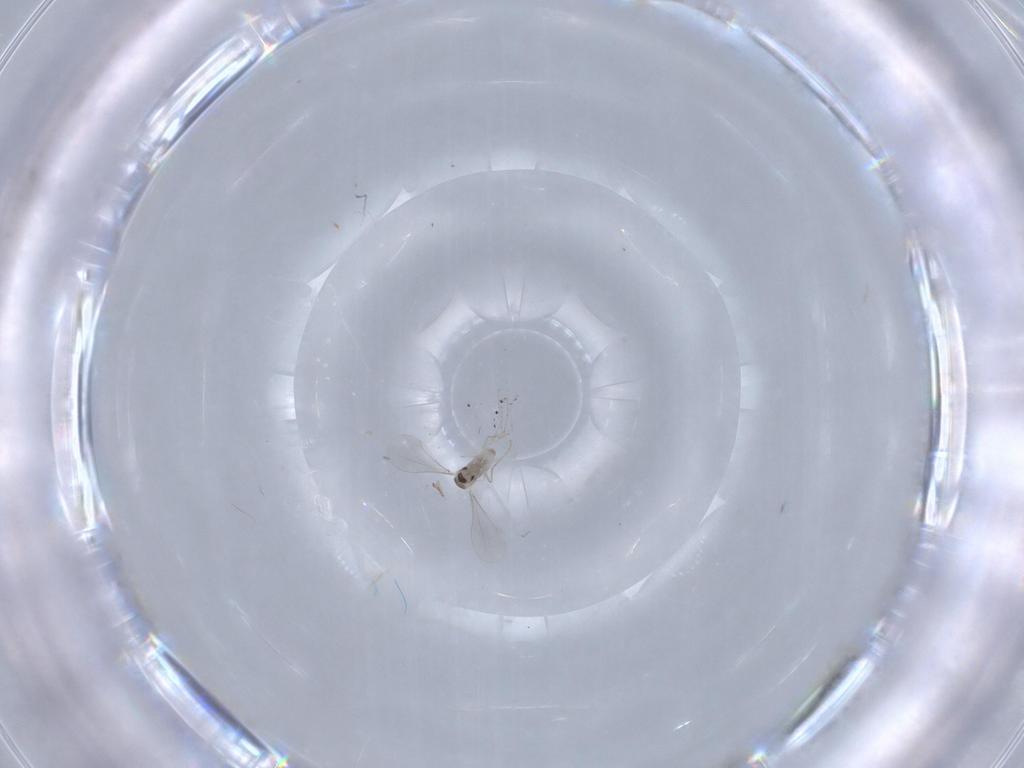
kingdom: Animalia
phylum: Arthropoda
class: Insecta
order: Diptera
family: Cecidomyiidae
